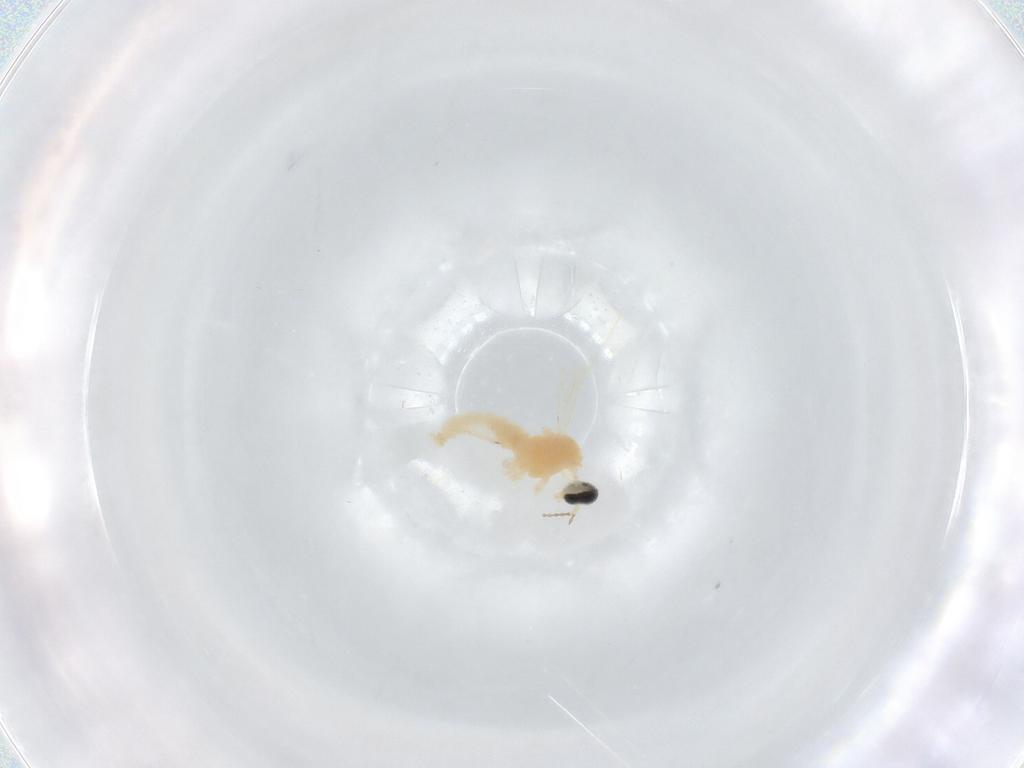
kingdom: Animalia
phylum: Arthropoda
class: Insecta
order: Diptera
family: Cecidomyiidae
